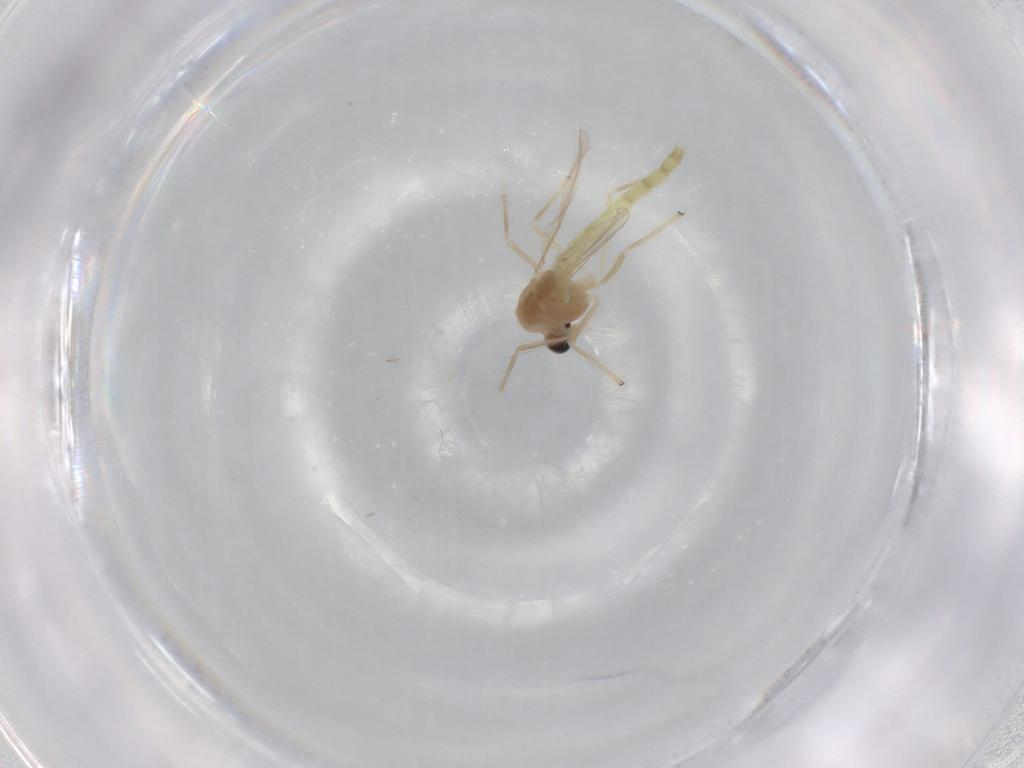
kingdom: Animalia
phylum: Arthropoda
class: Insecta
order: Diptera
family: Chironomidae
